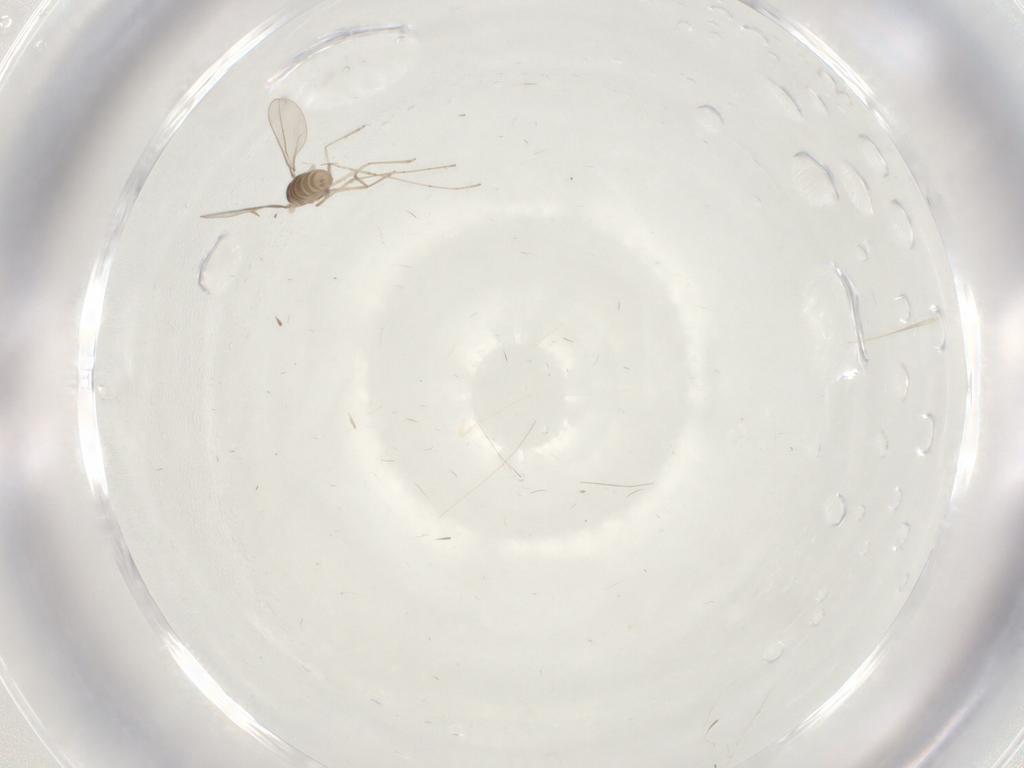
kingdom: Animalia
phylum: Arthropoda
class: Insecta
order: Diptera
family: Cecidomyiidae
